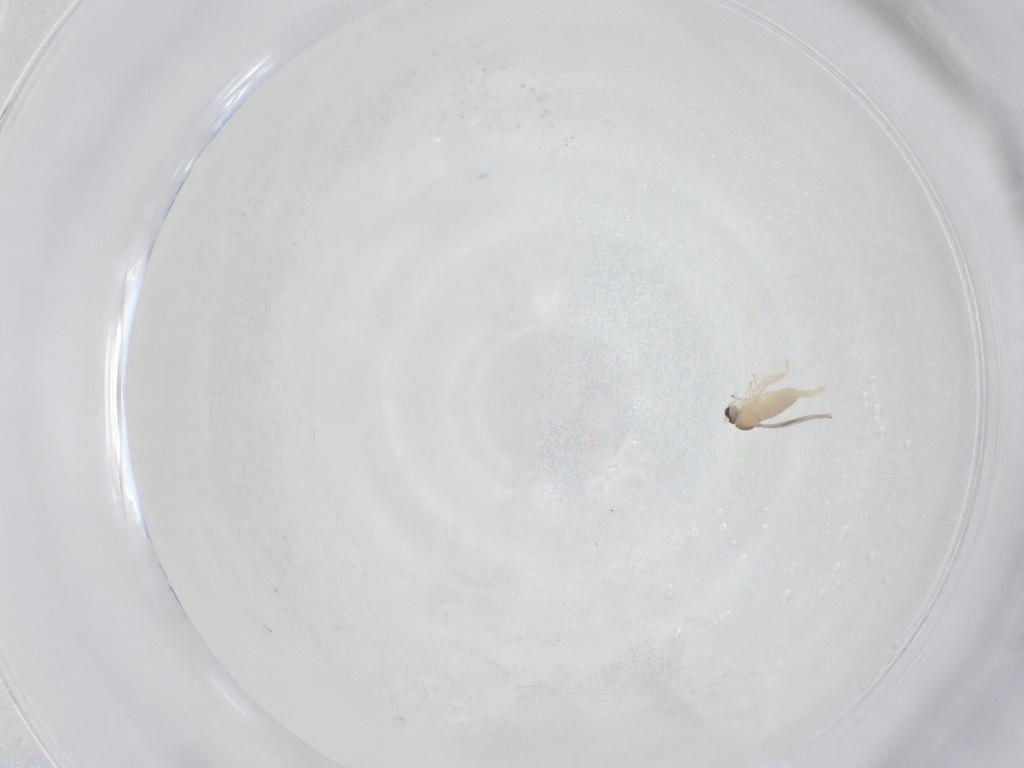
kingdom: Animalia
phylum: Arthropoda
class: Insecta
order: Diptera
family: Cecidomyiidae
